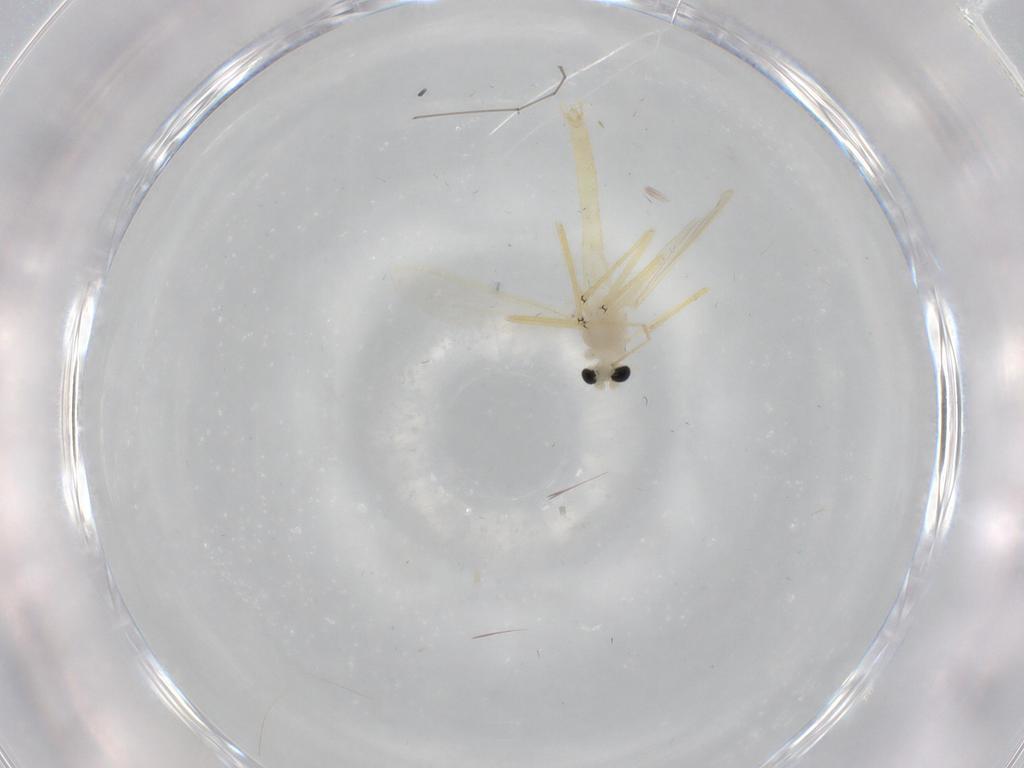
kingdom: Animalia
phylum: Arthropoda
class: Insecta
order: Diptera
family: Chironomidae
